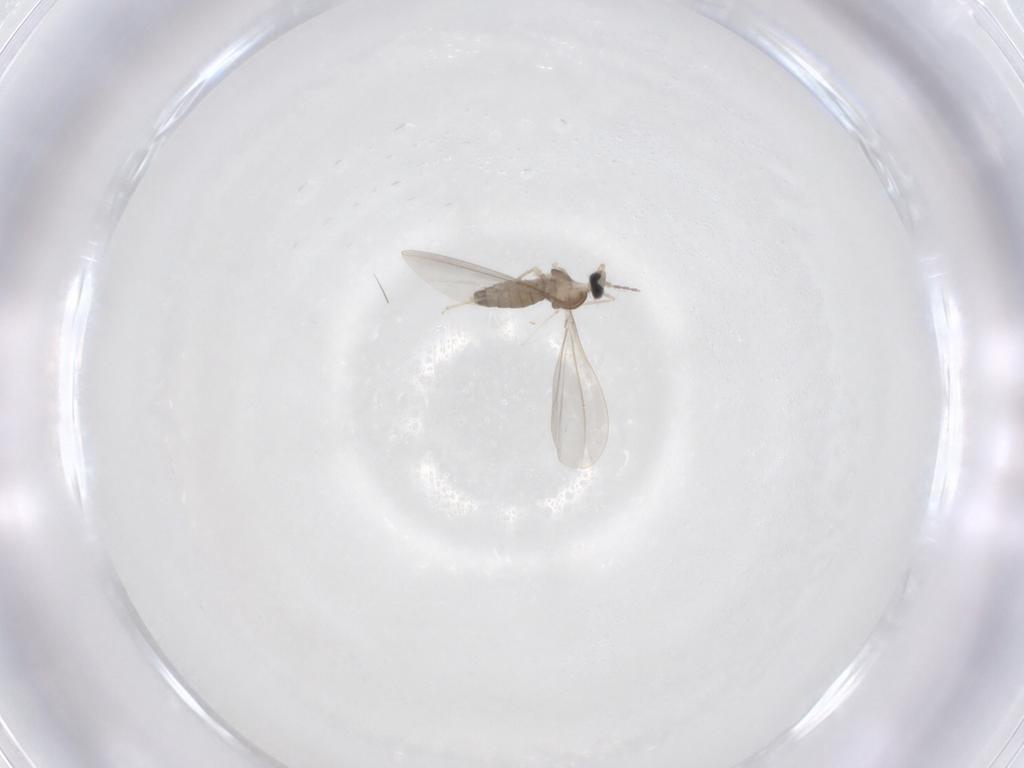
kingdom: Animalia
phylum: Arthropoda
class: Insecta
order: Diptera
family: Cecidomyiidae
